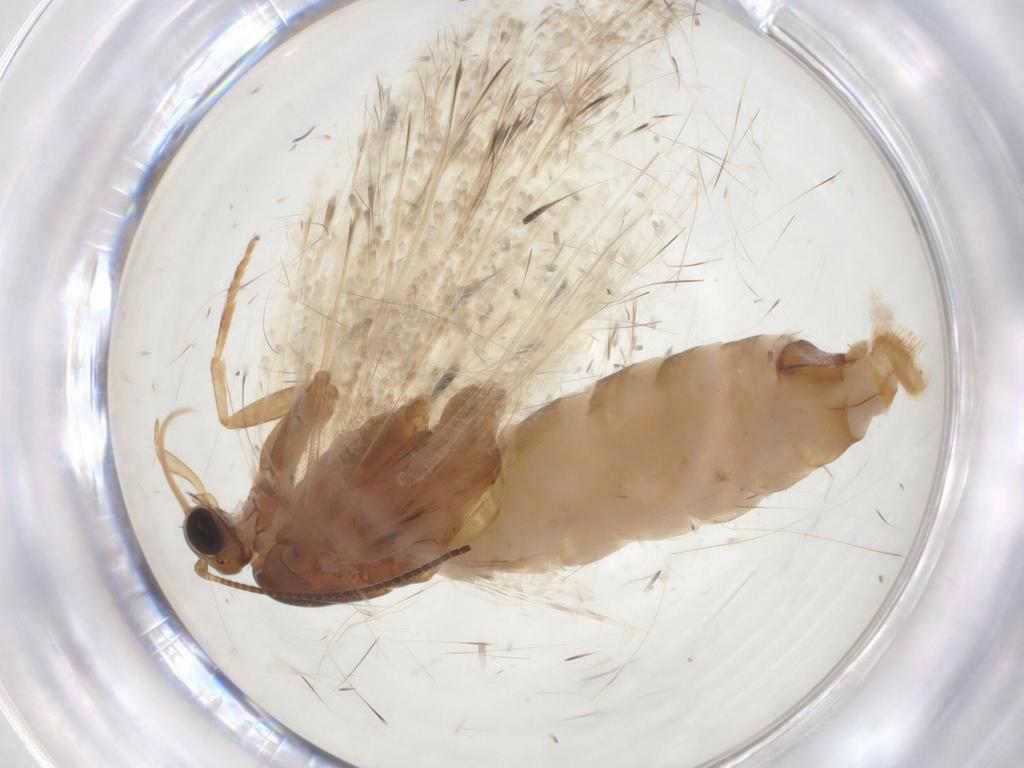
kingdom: Animalia
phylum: Arthropoda
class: Insecta
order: Lepidoptera
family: Tortricidae
